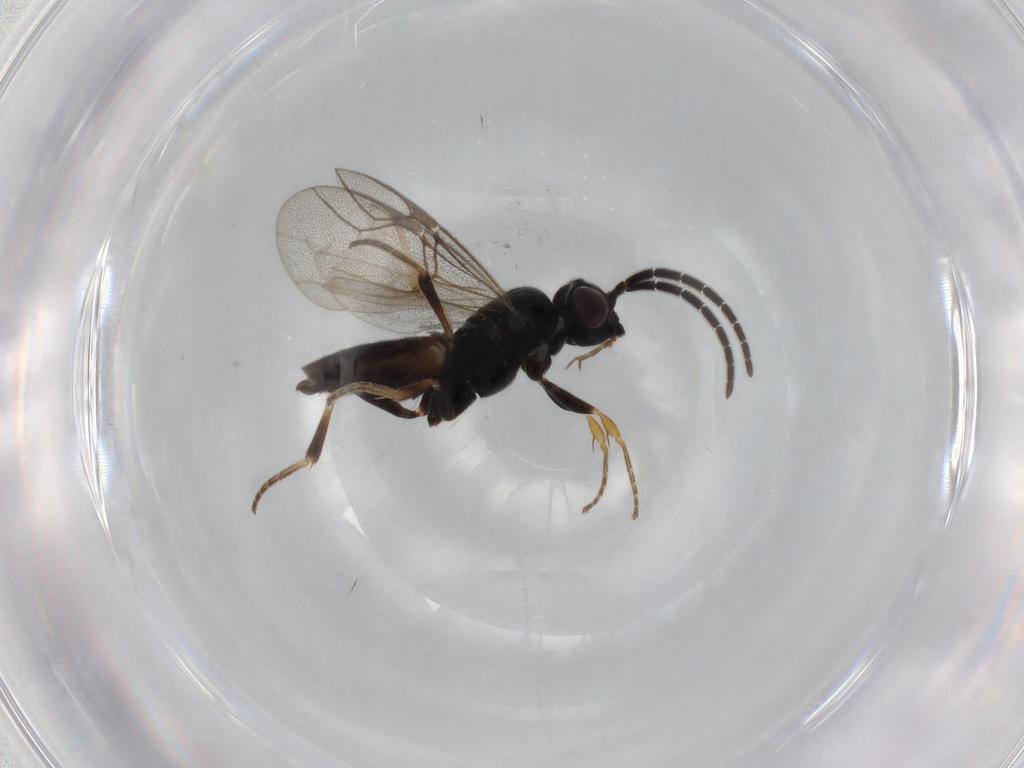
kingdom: Animalia
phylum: Arthropoda
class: Insecta
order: Hymenoptera
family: Dryinidae
